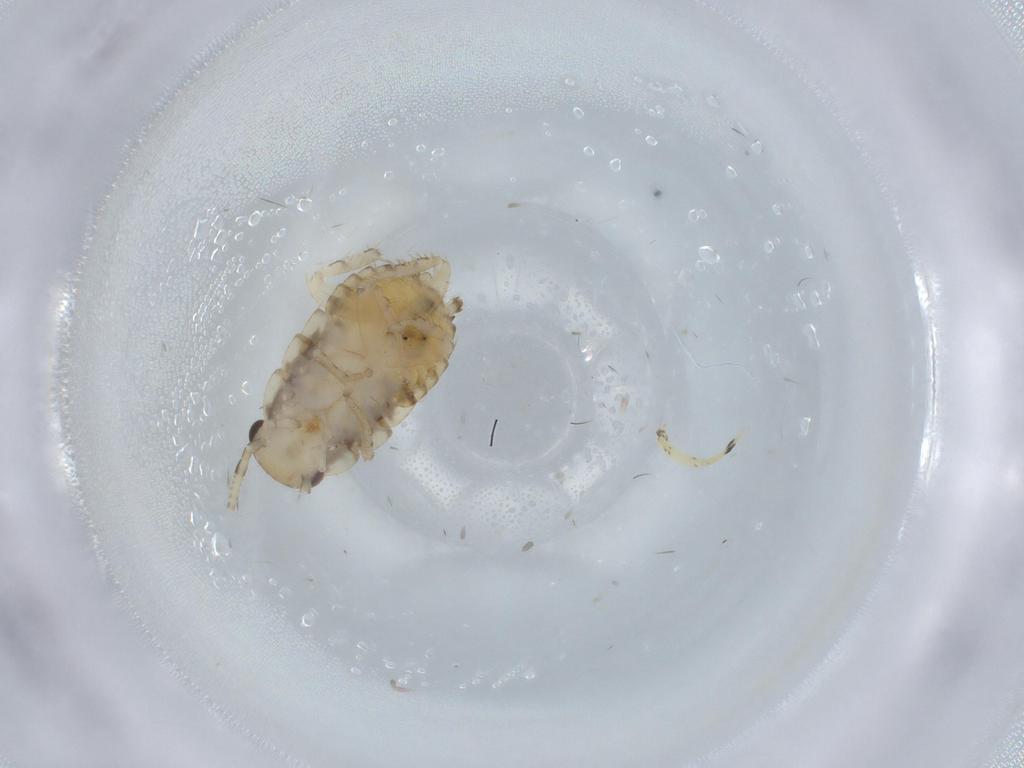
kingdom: Animalia
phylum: Arthropoda
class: Insecta
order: Blattodea
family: Ectobiidae
